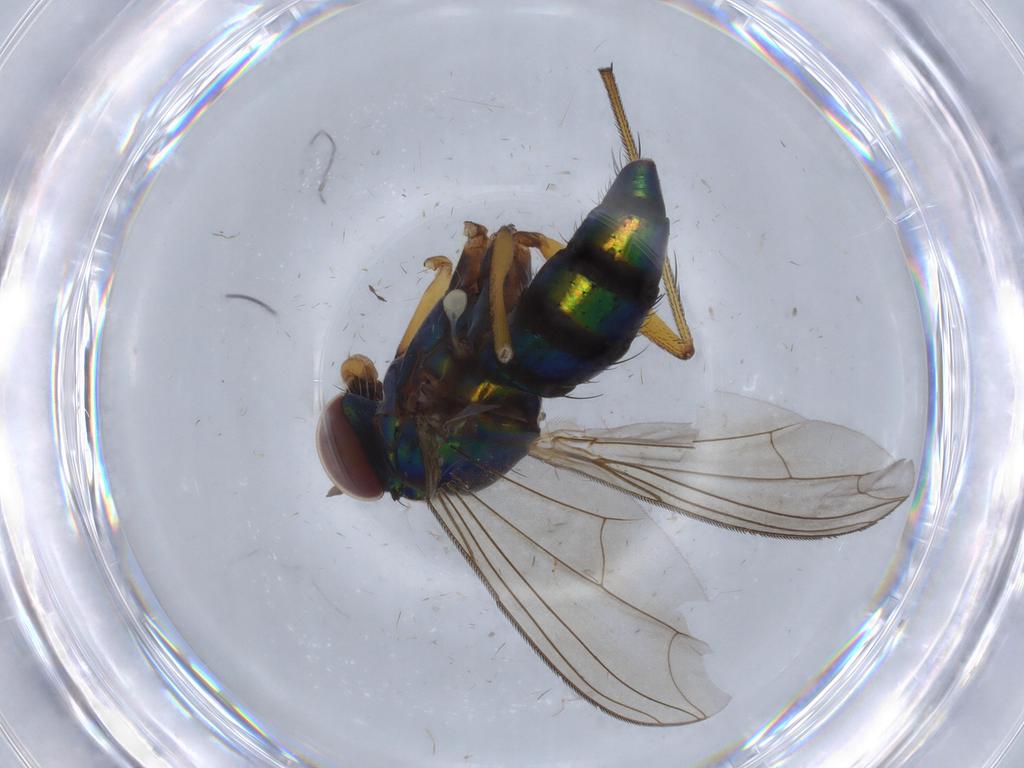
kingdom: Animalia
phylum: Arthropoda
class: Insecta
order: Diptera
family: Dolichopodidae
